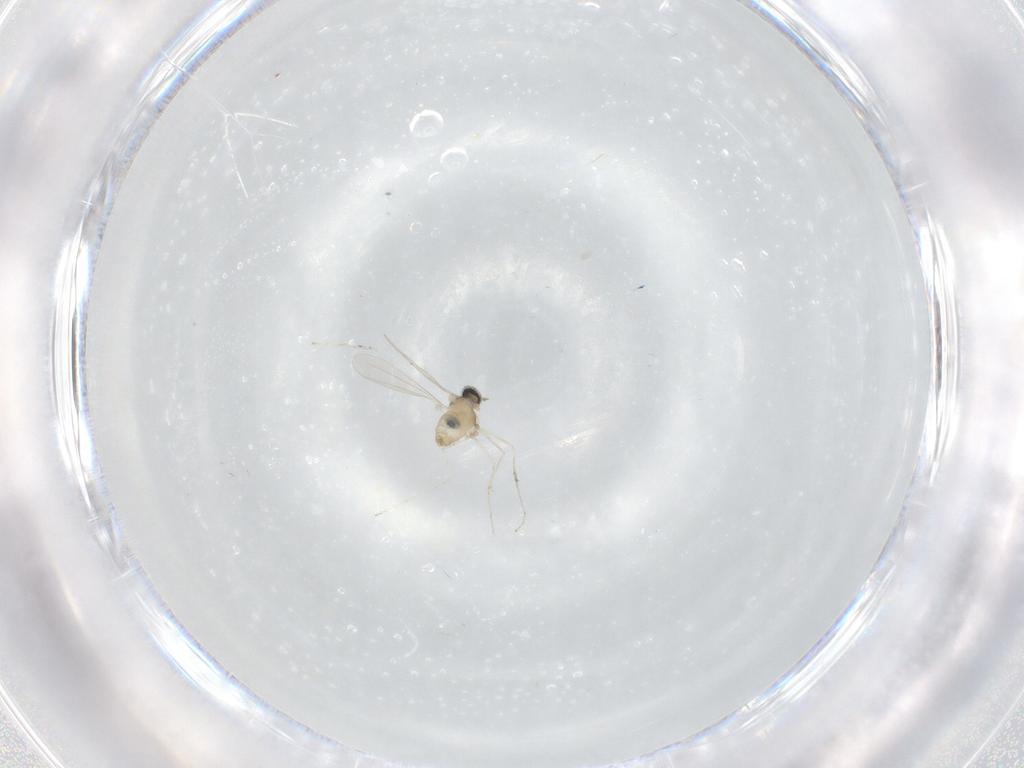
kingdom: Animalia
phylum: Arthropoda
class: Insecta
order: Diptera
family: Cecidomyiidae
